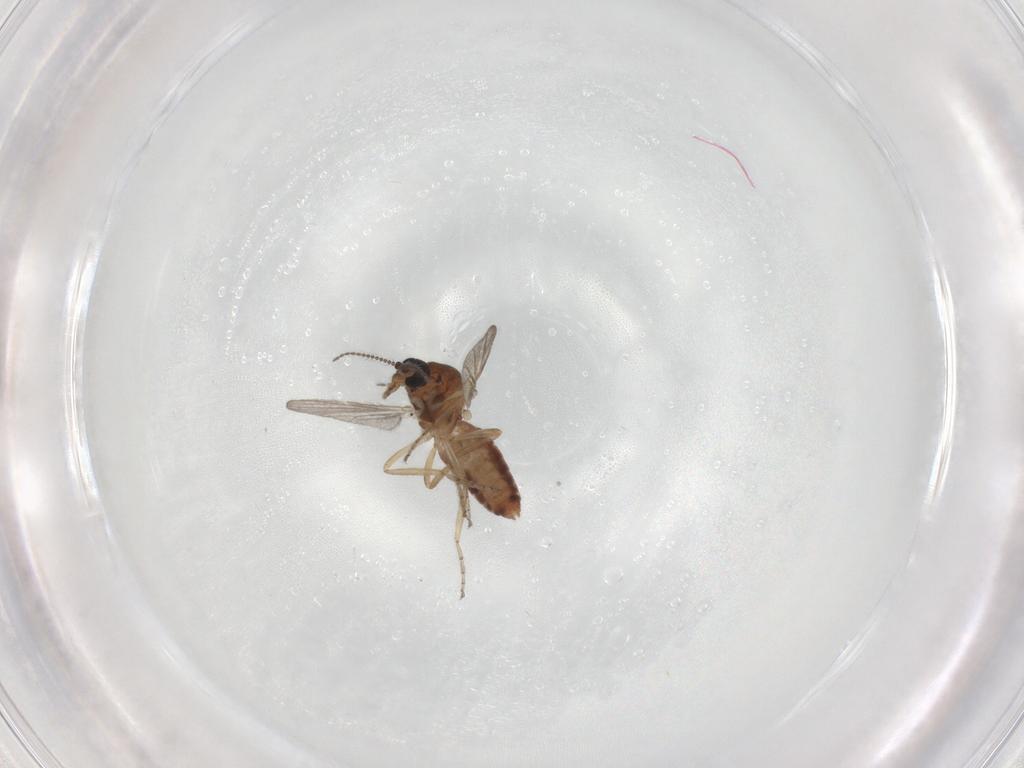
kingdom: Animalia
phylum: Arthropoda
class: Insecta
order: Diptera
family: Ceratopogonidae
